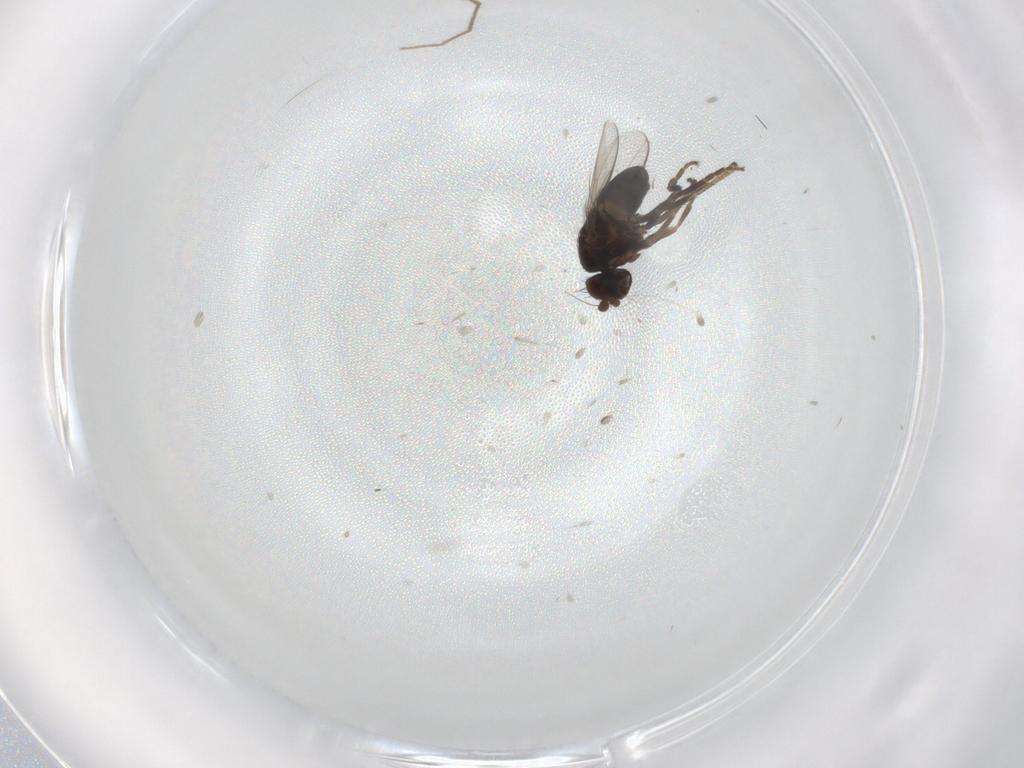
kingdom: Animalia
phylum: Arthropoda
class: Insecta
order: Diptera
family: Sphaeroceridae
